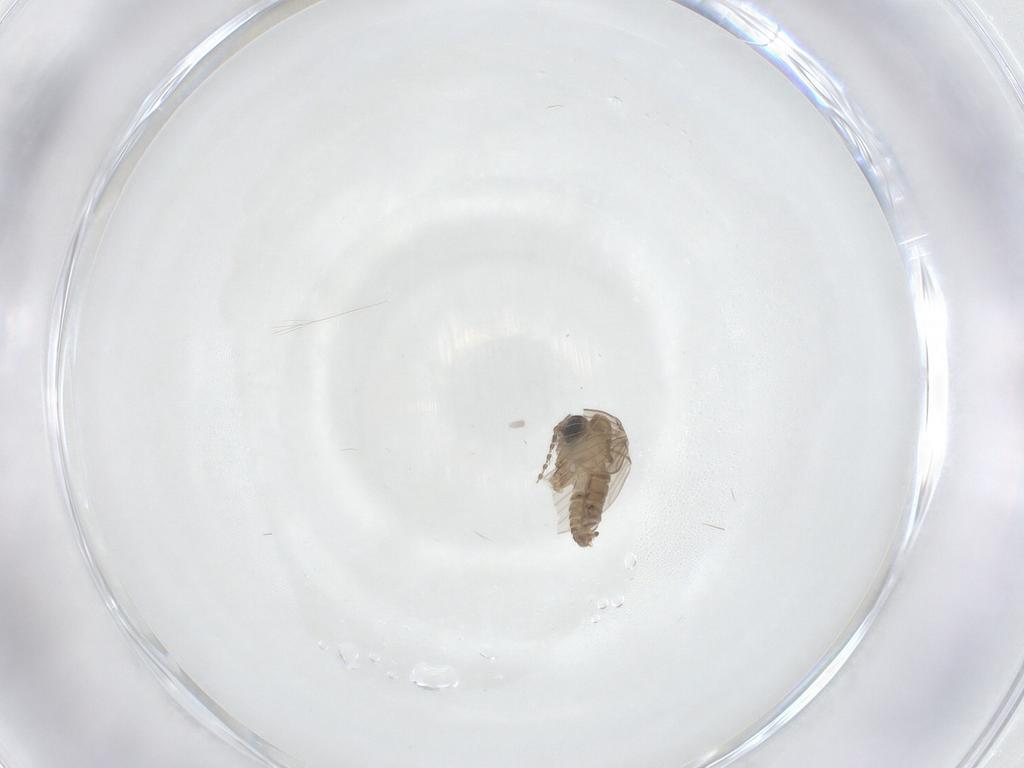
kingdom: Animalia
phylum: Arthropoda
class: Insecta
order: Diptera
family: Psychodidae
